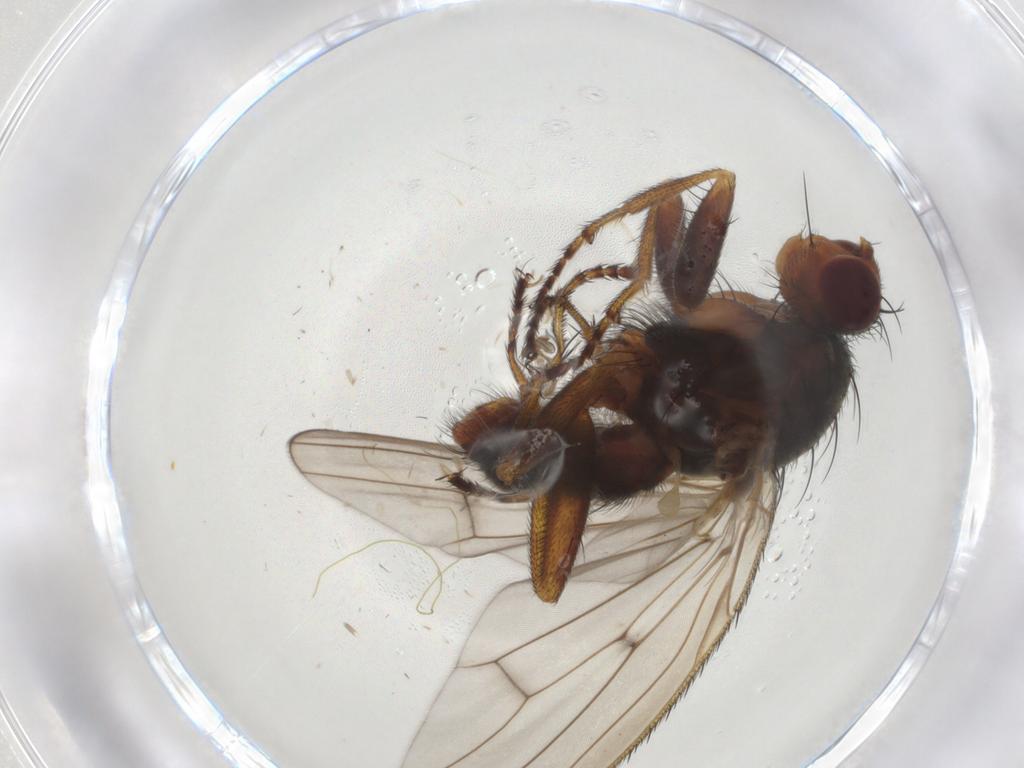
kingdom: Animalia
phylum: Arthropoda
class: Insecta
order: Diptera
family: Heleomyzidae
